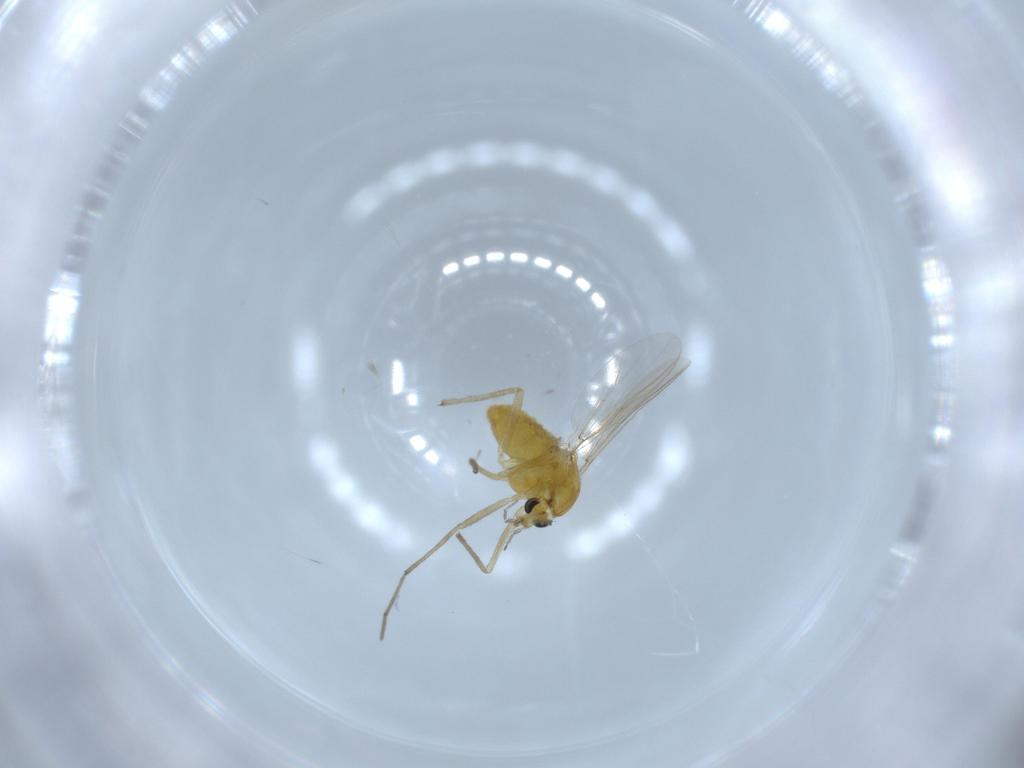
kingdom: Animalia
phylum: Arthropoda
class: Insecta
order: Diptera
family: Chironomidae
